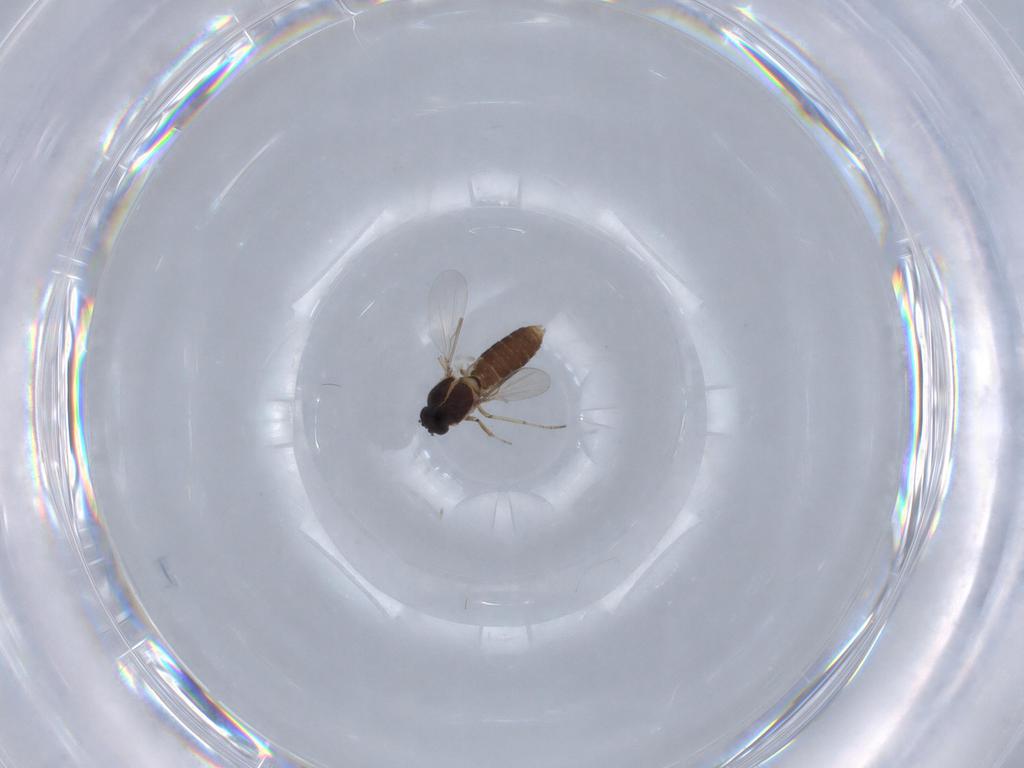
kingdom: Animalia
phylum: Arthropoda
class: Insecta
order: Diptera
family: Ceratopogonidae
